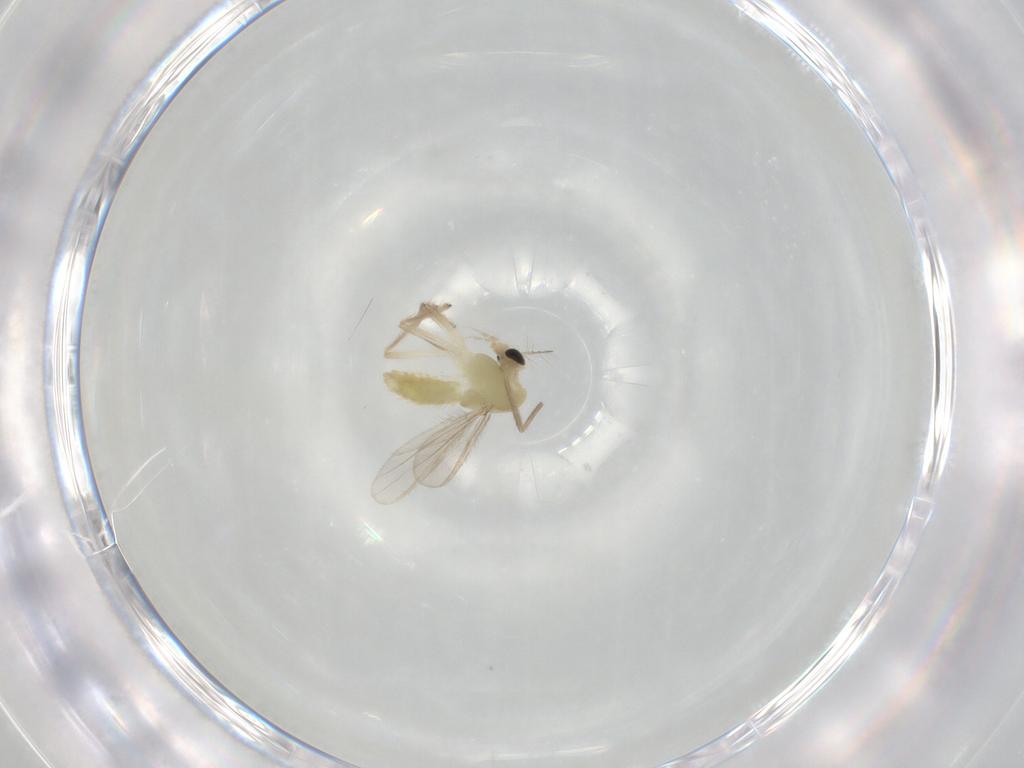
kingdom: Animalia
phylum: Arthropoda
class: Insecta
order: Diptera
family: Chironomidae
